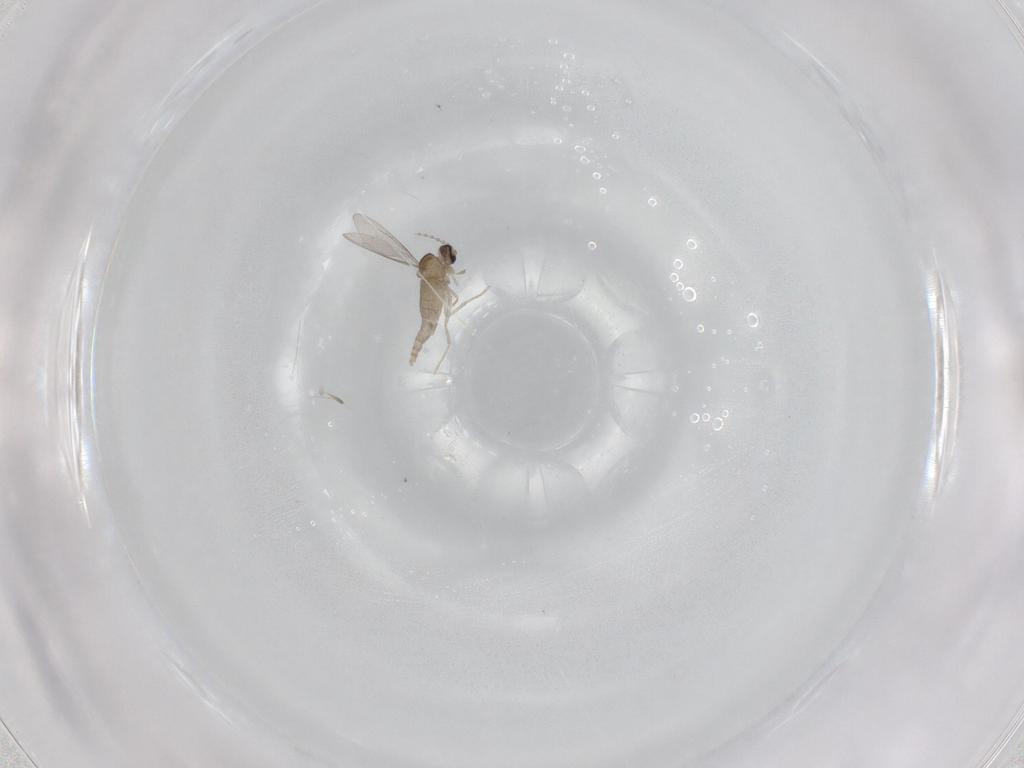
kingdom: Animalia
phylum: Arthropoda
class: Insecta
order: Diptera
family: Cecidomyiidae
